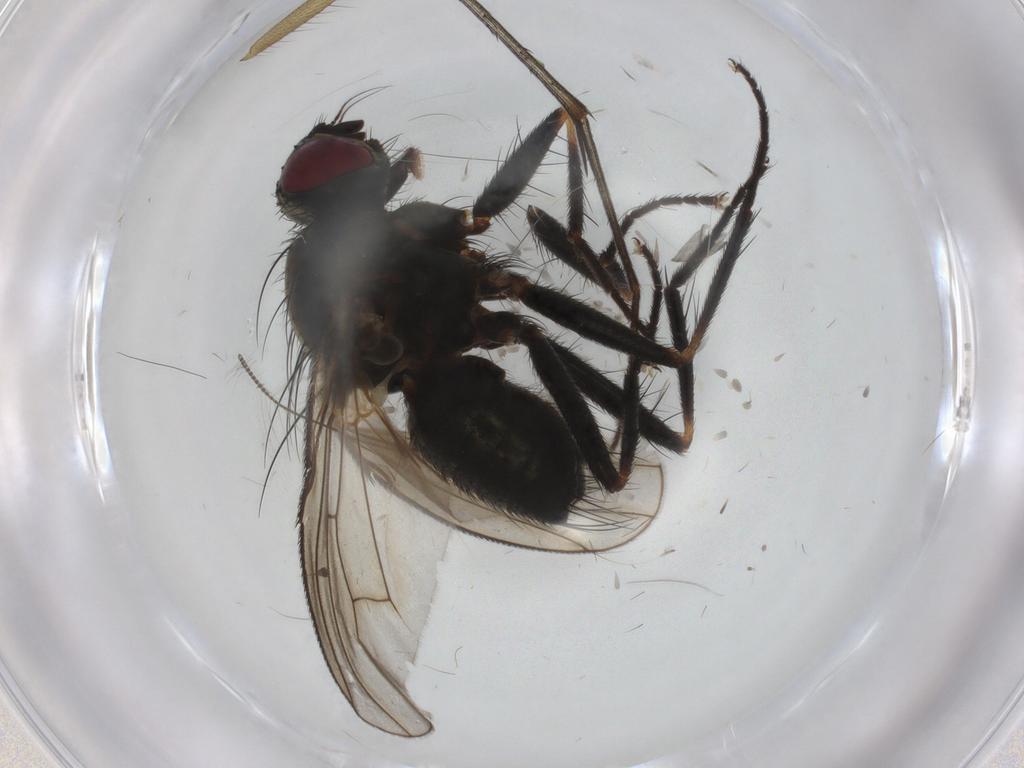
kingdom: Animalia
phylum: Arthropoda
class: Insecta
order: Diptera
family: Muscidae
